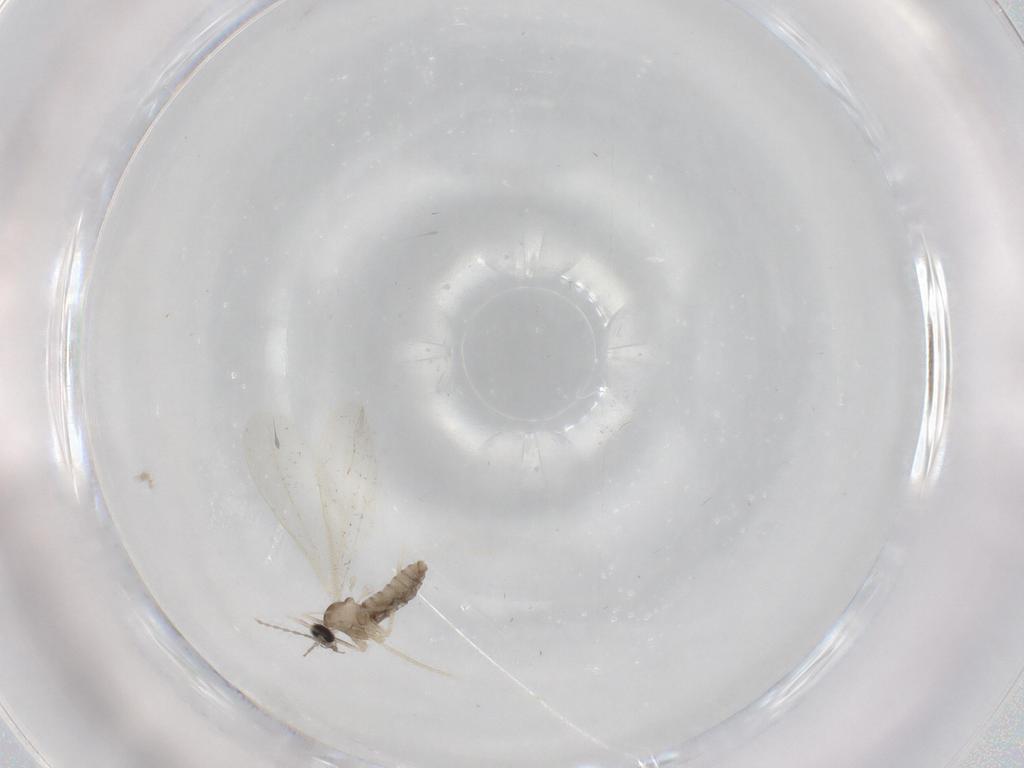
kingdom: Animalia
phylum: Arthropoda
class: Insecta
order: Diptera
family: Cecidomyiidae
